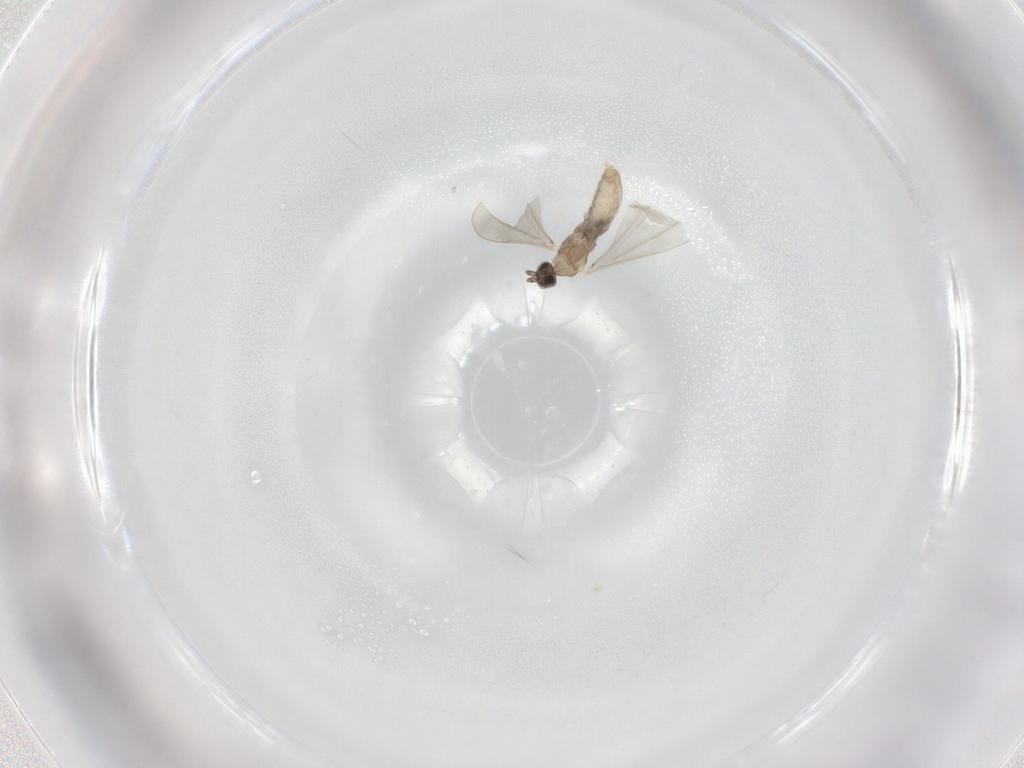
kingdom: Animalia
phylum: Arthropoda
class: Insecta
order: Diptera
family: Cecidomyiidae
